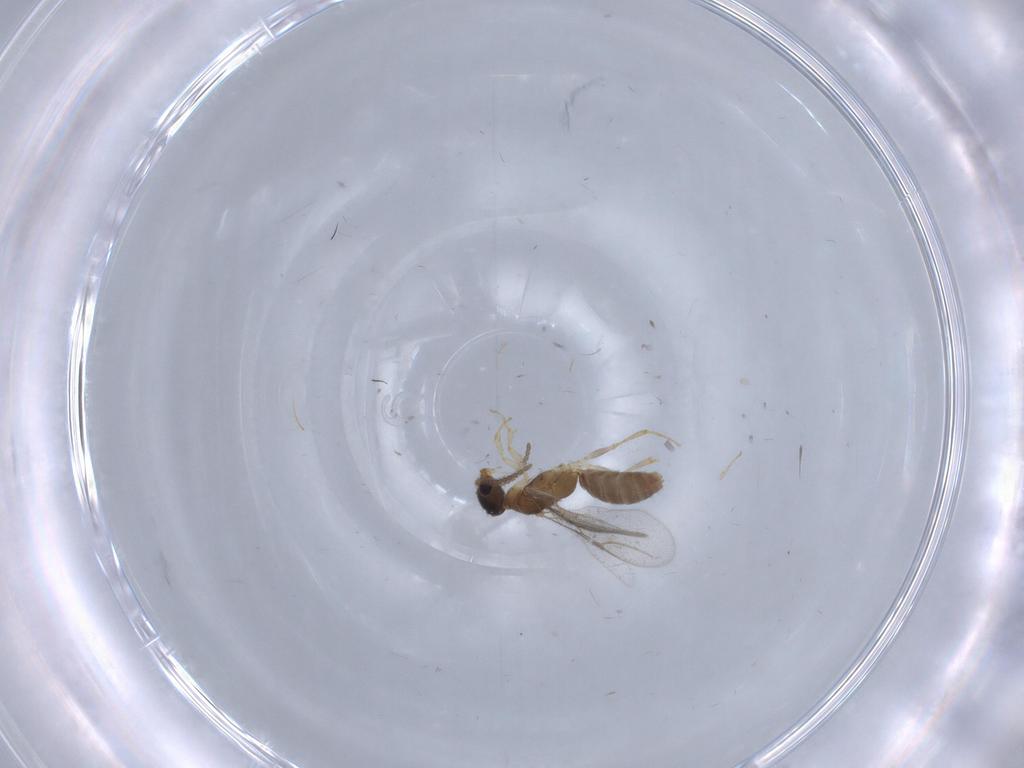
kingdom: Animalia
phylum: Arthropoda
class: Insecta
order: Hymenoptera
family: Bethylidae
